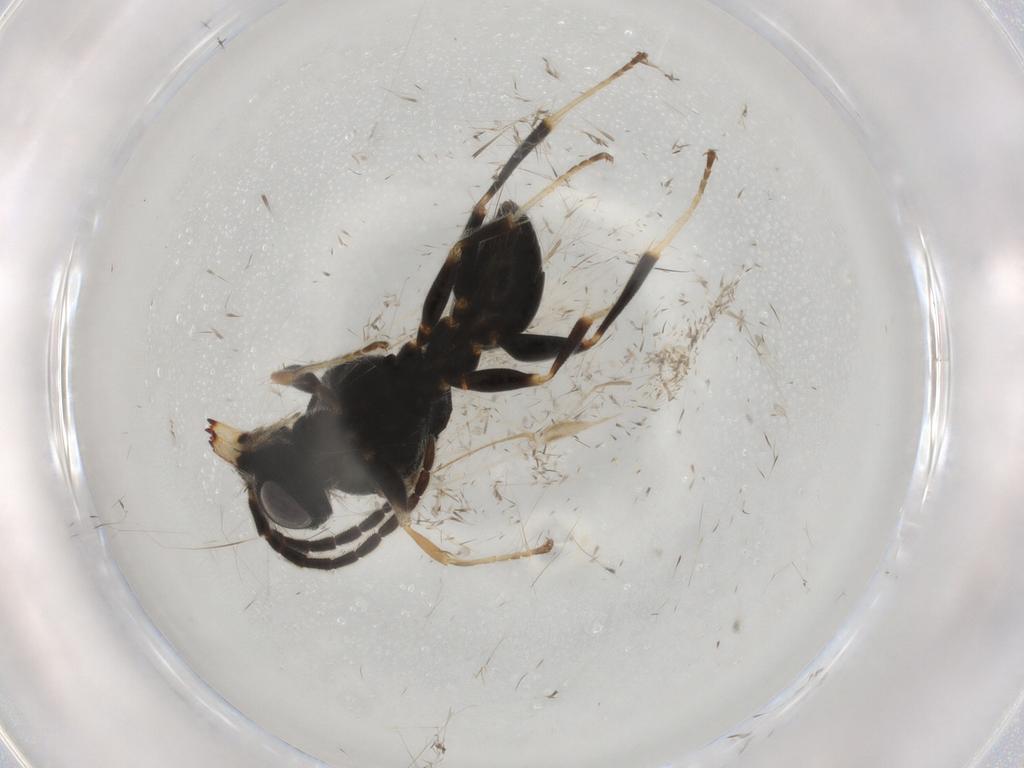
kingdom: Animalia
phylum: Arthropoda
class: Insecta
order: Hymenoptera
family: Dryinidae
